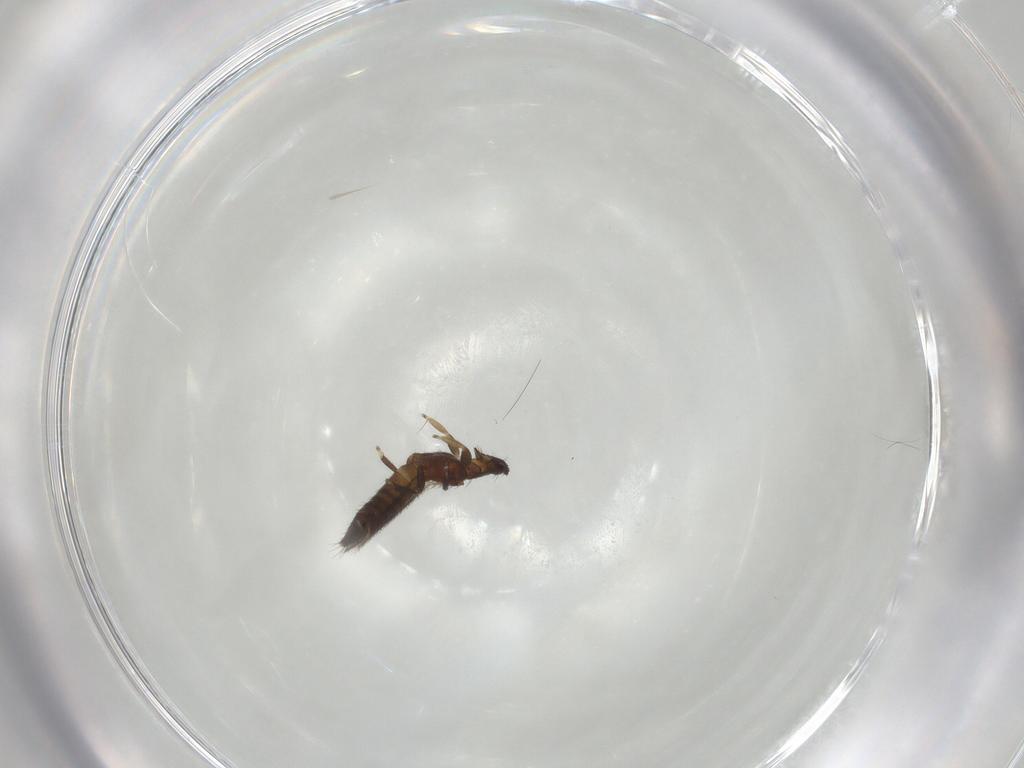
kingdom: Animalia
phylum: Arthropoda
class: Insecta
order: Thysanoptera
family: Thripidae
